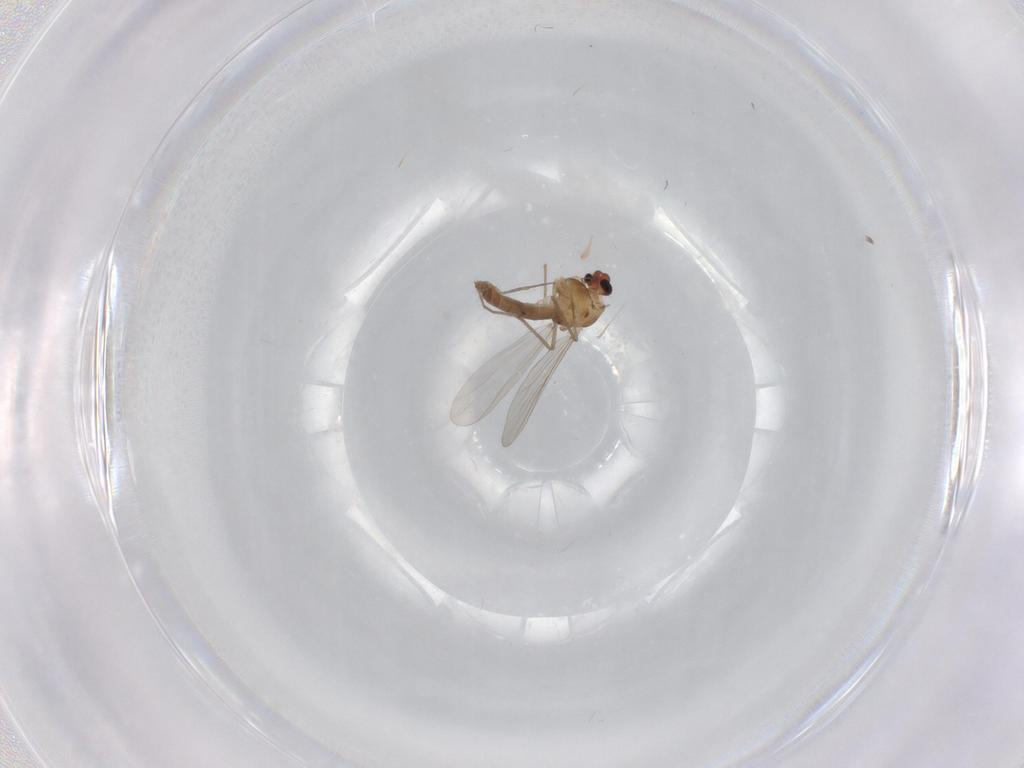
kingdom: Animalia
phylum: Arthropoda
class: Insecta
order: Diptera
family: Chironomidae
